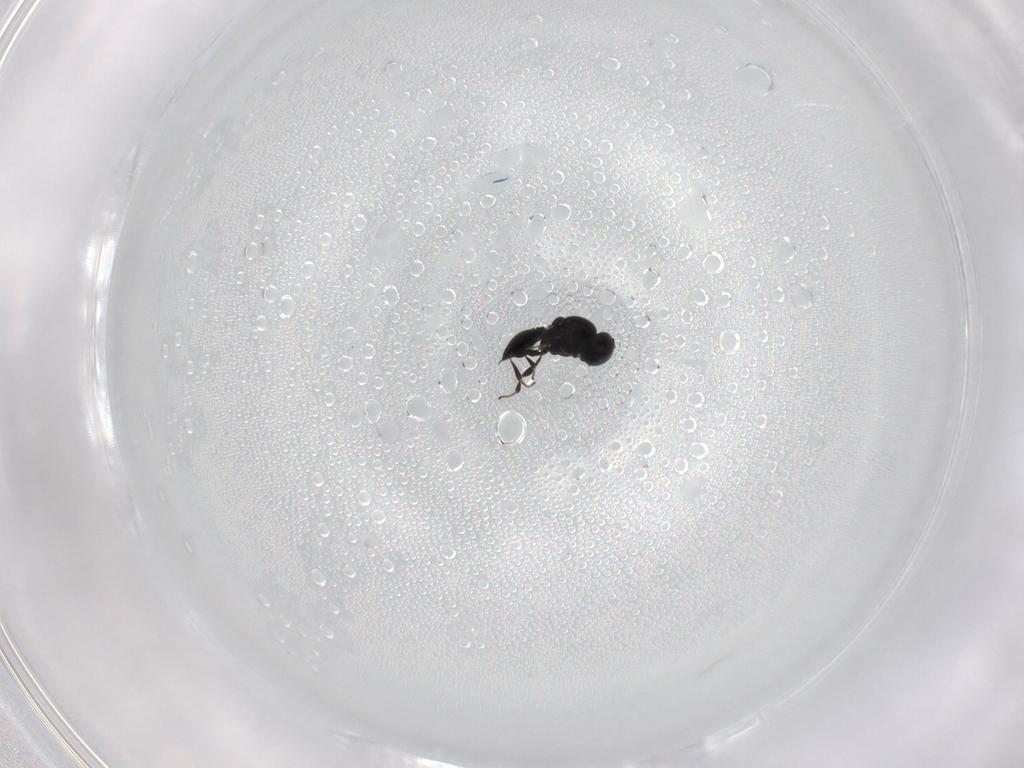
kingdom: Animalia
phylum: Arthropoda
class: Insecta
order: Hymenoptera
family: Platygastridae
